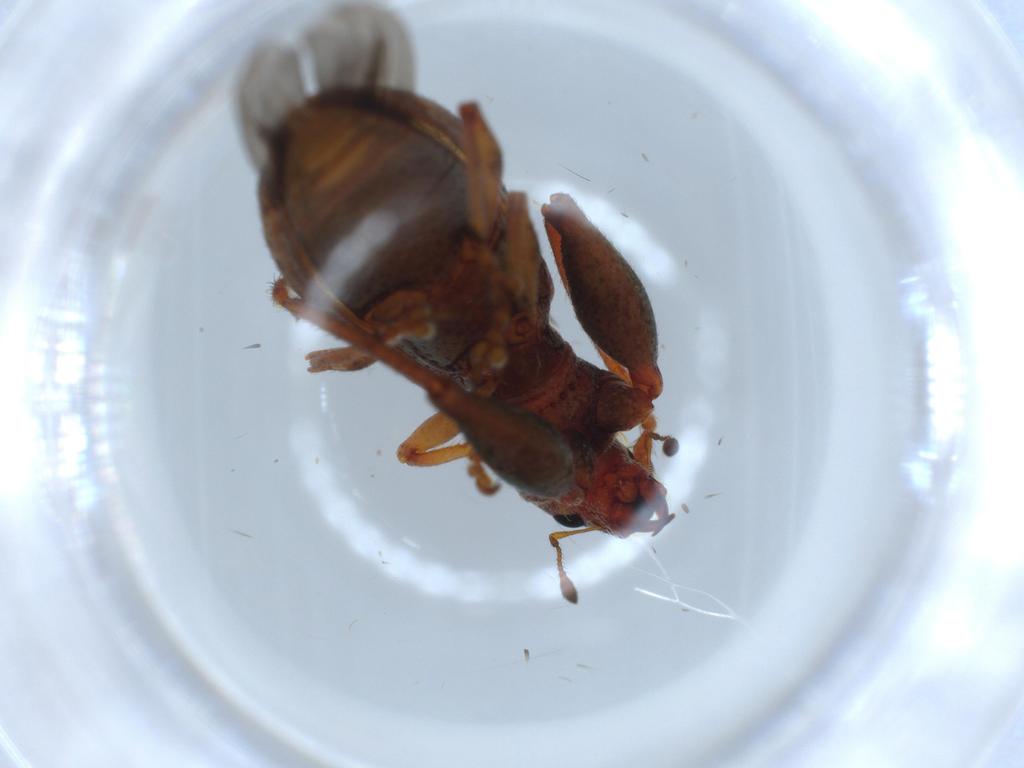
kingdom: Animalia
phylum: Arthropoda
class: Insecta
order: Coleoptera
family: Curculionidae
